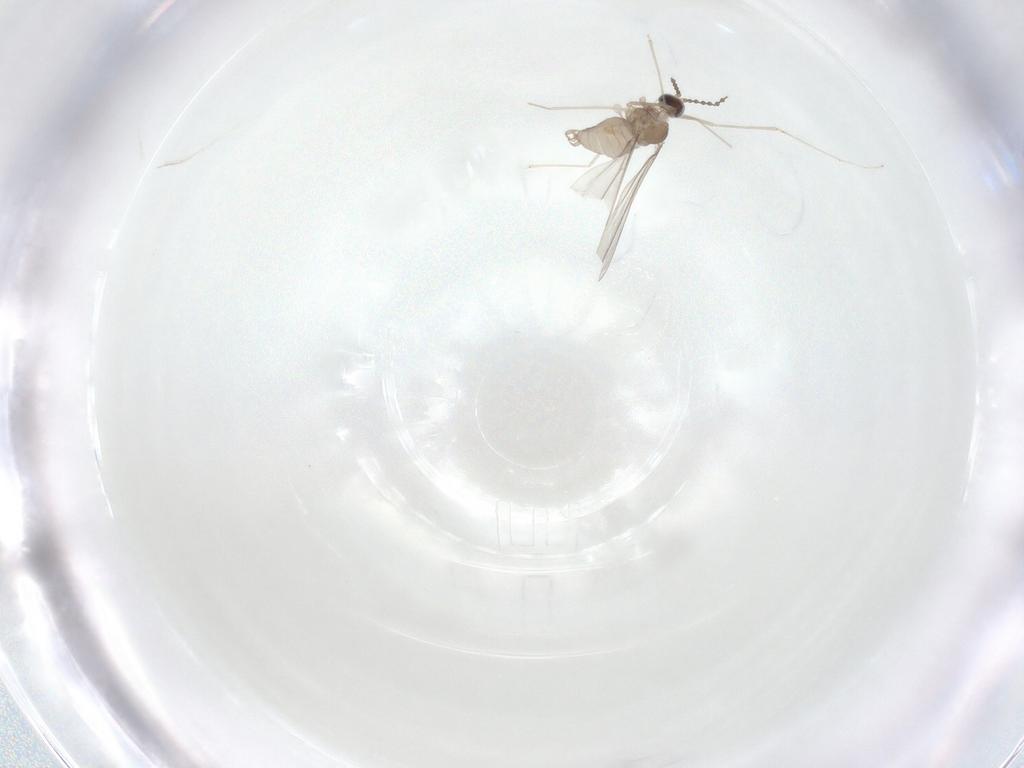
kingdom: Animalia
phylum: Arthropoda
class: Insecta
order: Diptera
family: Cecidomyiidae
